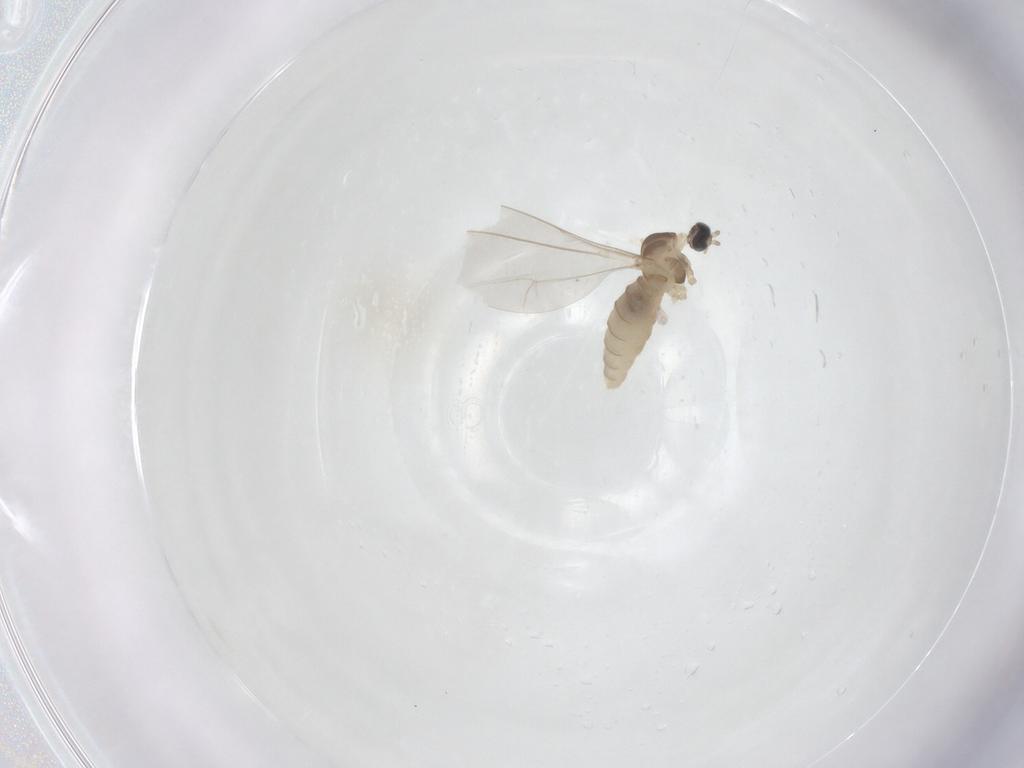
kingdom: Animalia
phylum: Arthropoda
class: Insecta
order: Diptera
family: Cecidomyiidae
